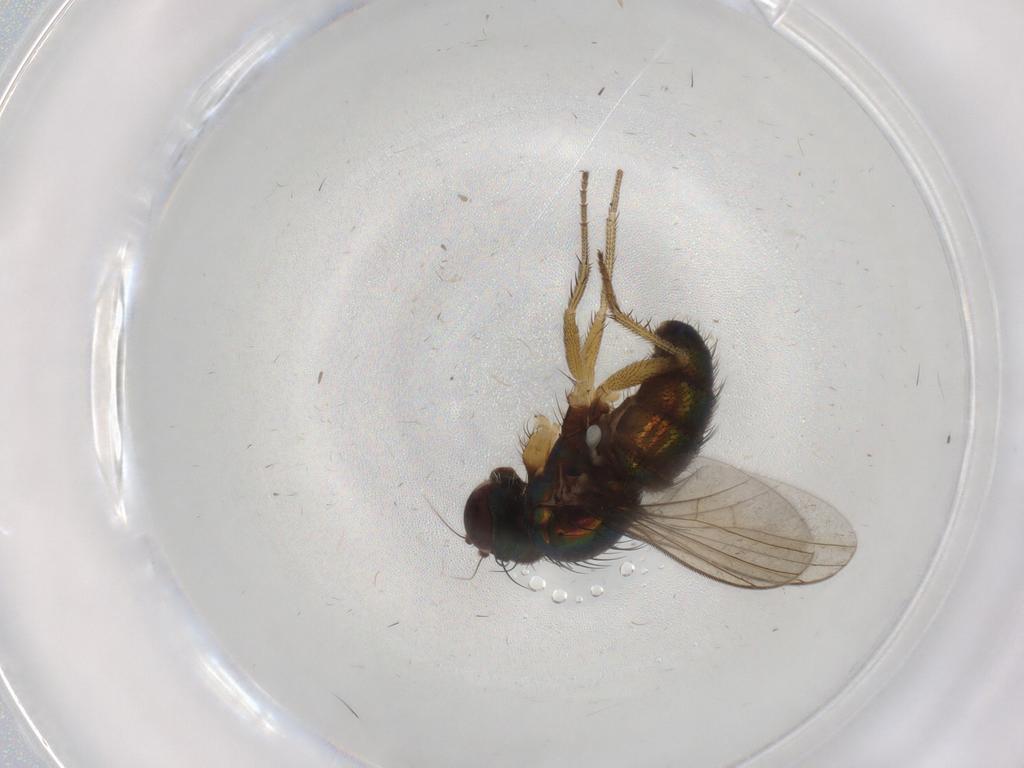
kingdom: Animalia
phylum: Arthropoda
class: Insecta
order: Diptera
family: Dolichopodidae
